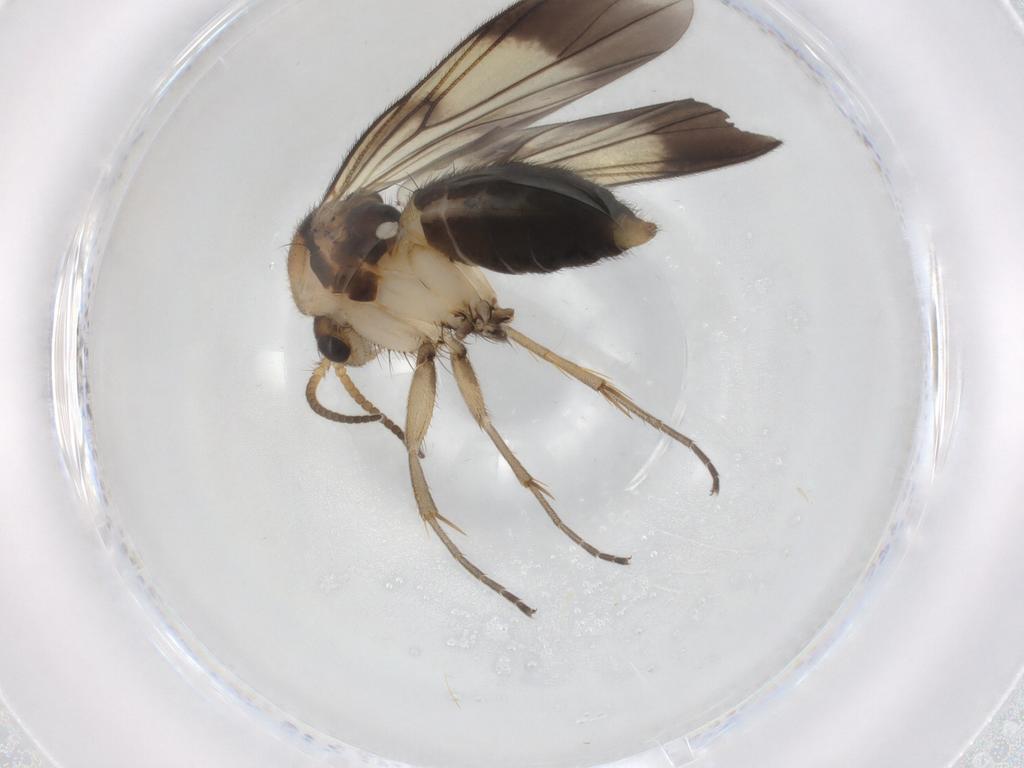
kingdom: Animalia
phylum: Arthropoda
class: Insecta
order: Diptera
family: Mycetophilidae
